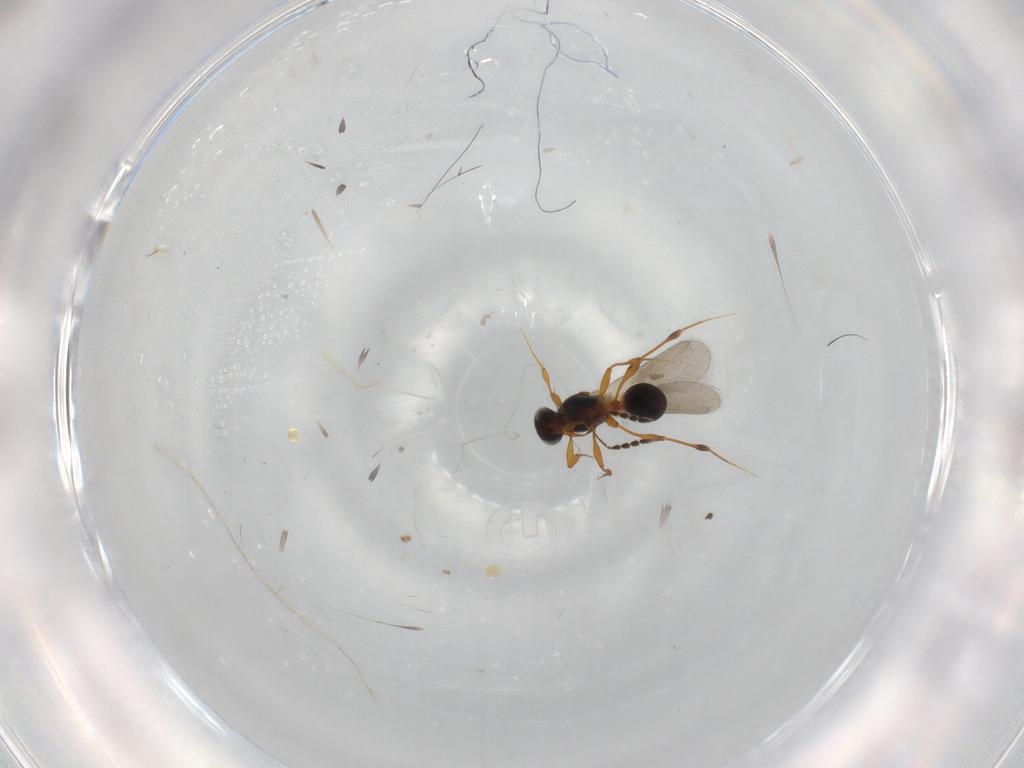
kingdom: Animalia
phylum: Arthropoda
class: Insecta
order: Hymenoptera
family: Platygastridae
